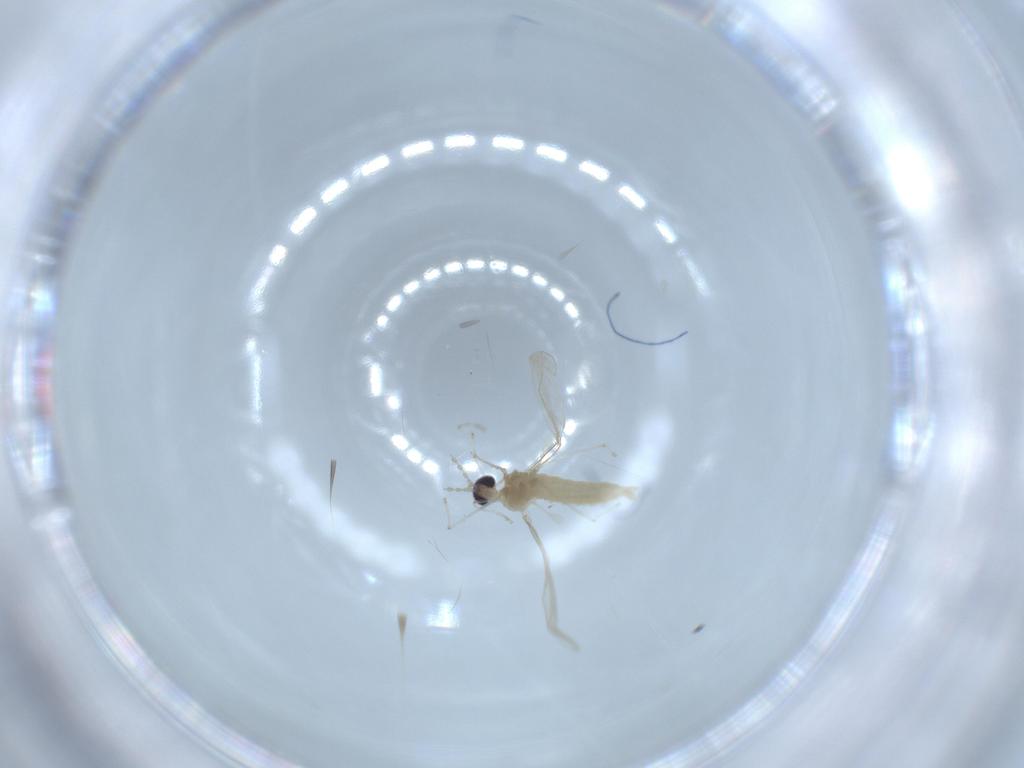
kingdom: Animalia
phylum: Arthropoda
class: Insecta
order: Diptera
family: Cecidomyiidae
